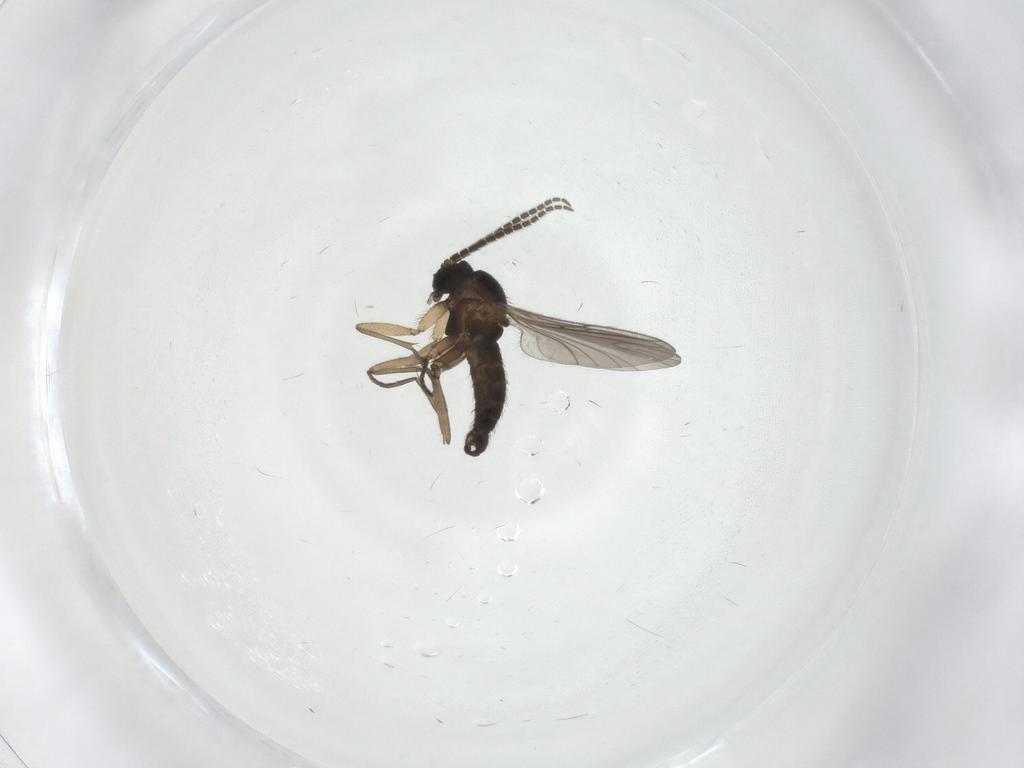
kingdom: Animalia
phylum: Arthropoda
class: Insecta
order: Diptera
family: Sciaridae
